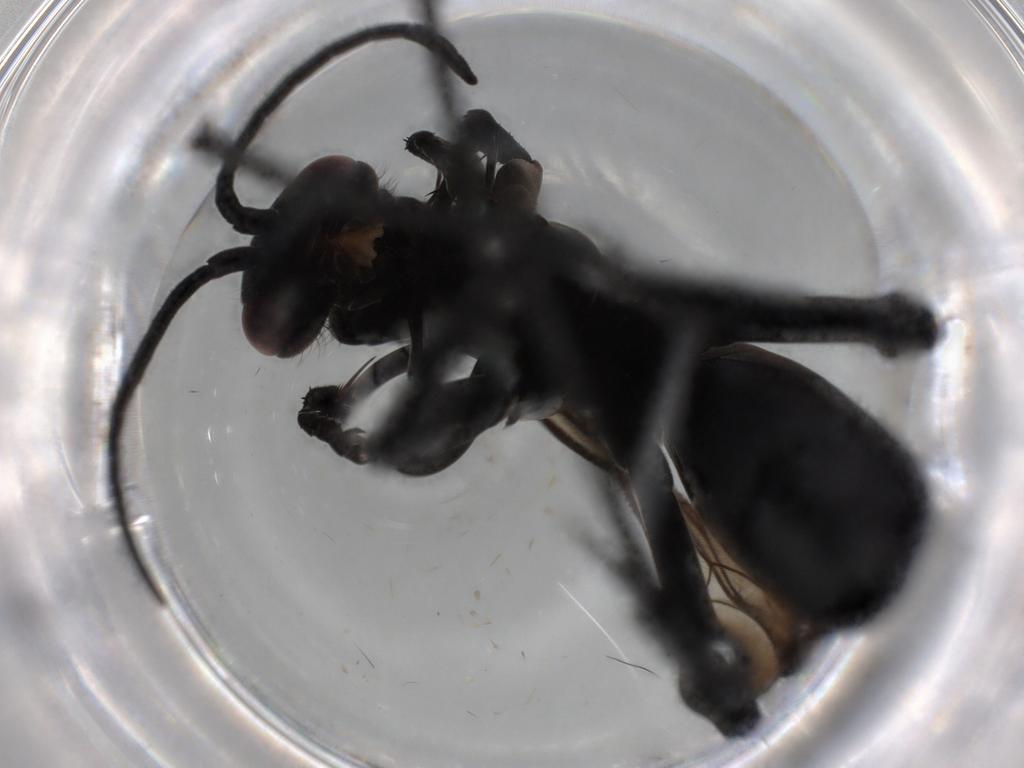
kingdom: Animalia
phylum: Arthropoda
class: Insecta
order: Hymenoptera
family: Pompilidae
